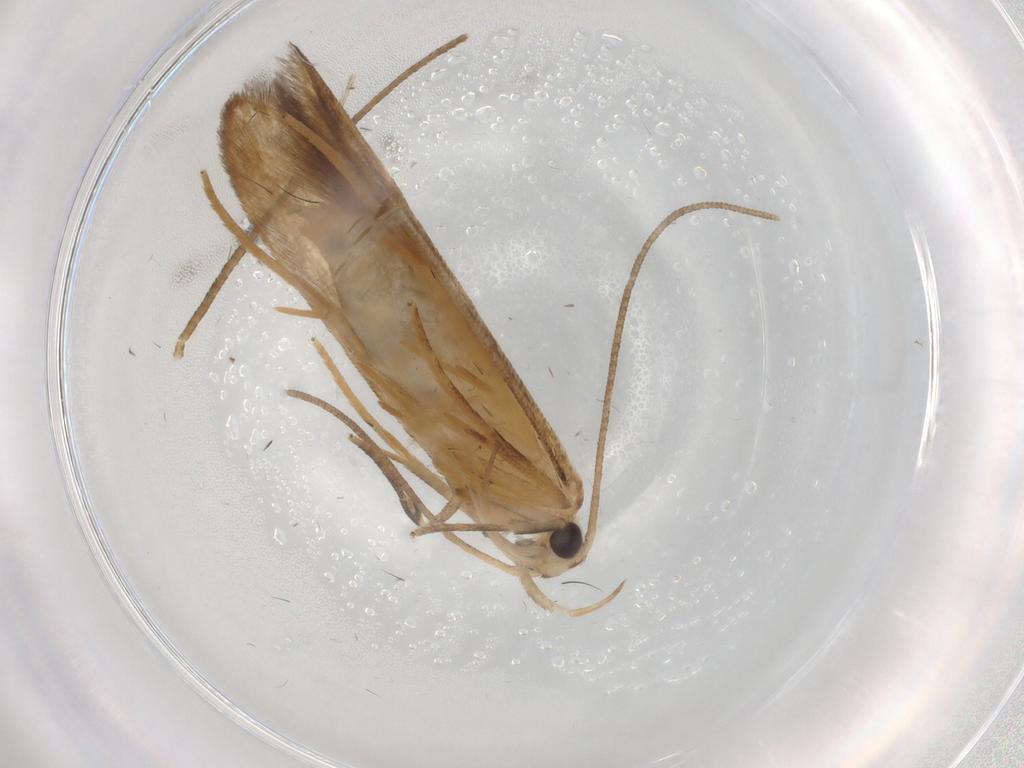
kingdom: Animalia
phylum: Arthropoda
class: Insecta
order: Lepidoptera
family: Nolidae
